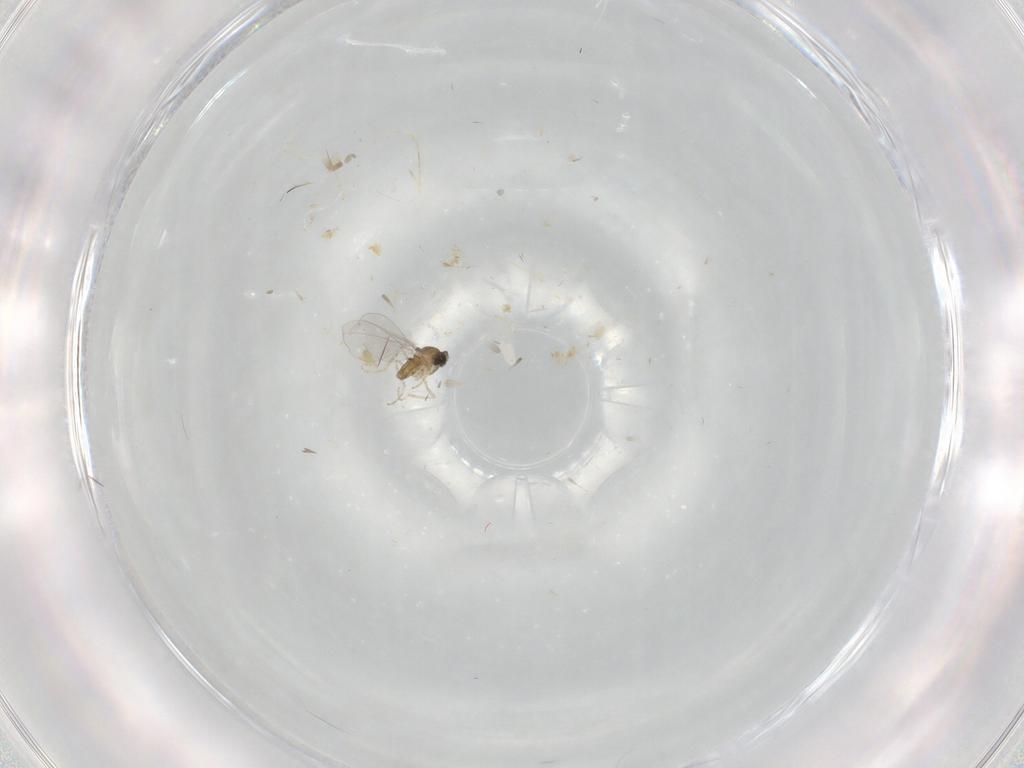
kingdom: Animalia
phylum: Arthropoda
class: Insecta
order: Diptera
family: Cecidomyiidae
